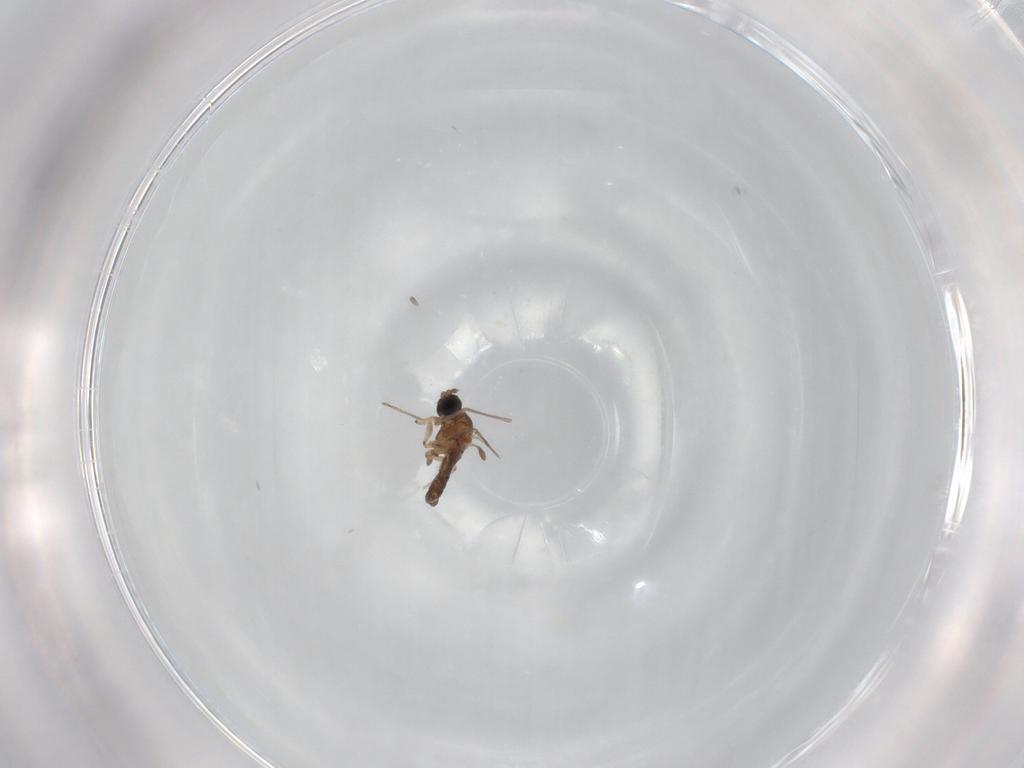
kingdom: Animalia
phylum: Arthropoda
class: Insecta
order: Diptera
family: Sciaridae
